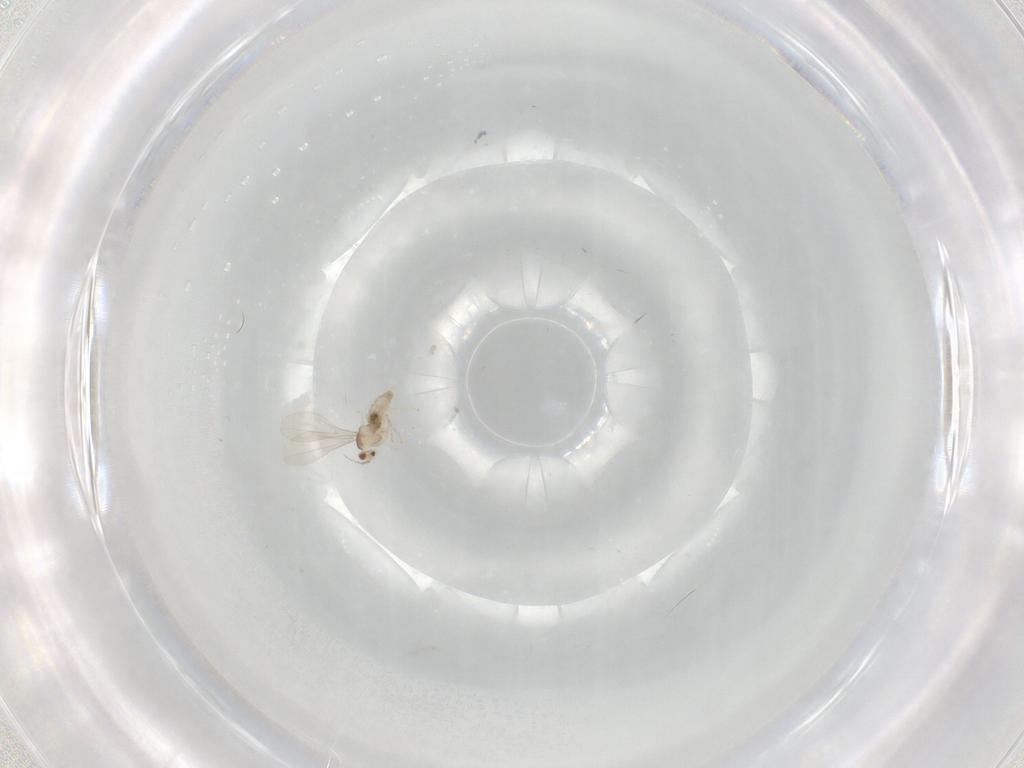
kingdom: Animalia
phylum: Arthropoda
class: Insecta
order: Diptera
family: Cecidomyiidae
